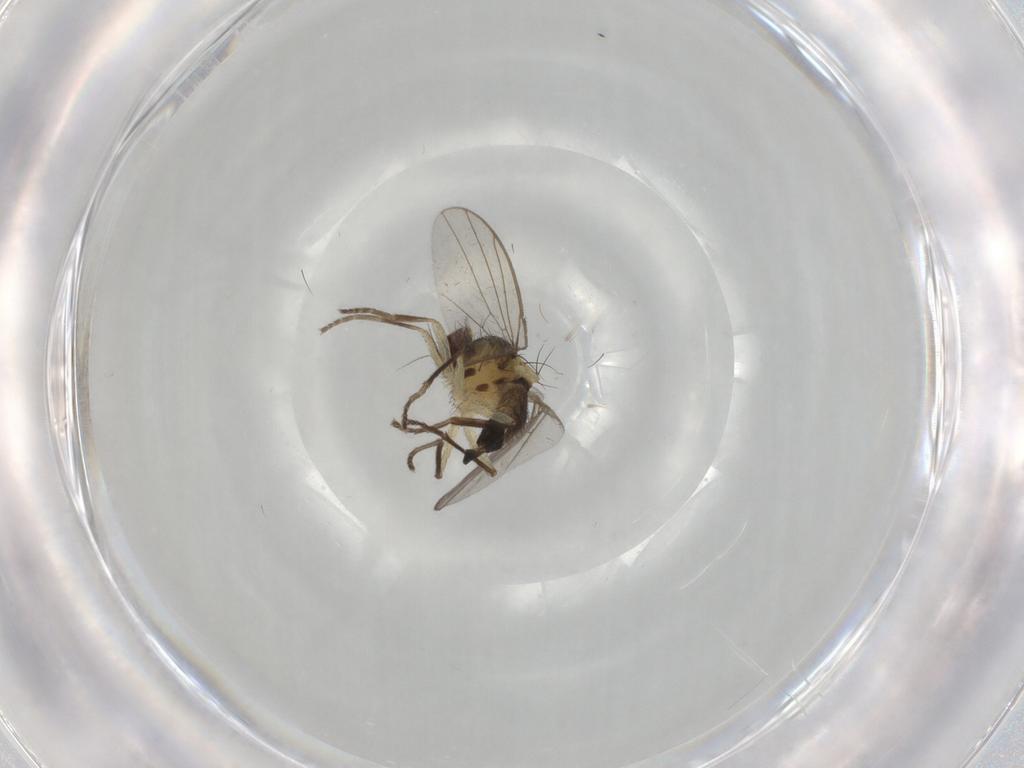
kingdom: Animalia
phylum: Arthropoda
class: Insecta
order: Diptera
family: Agromyzidae
